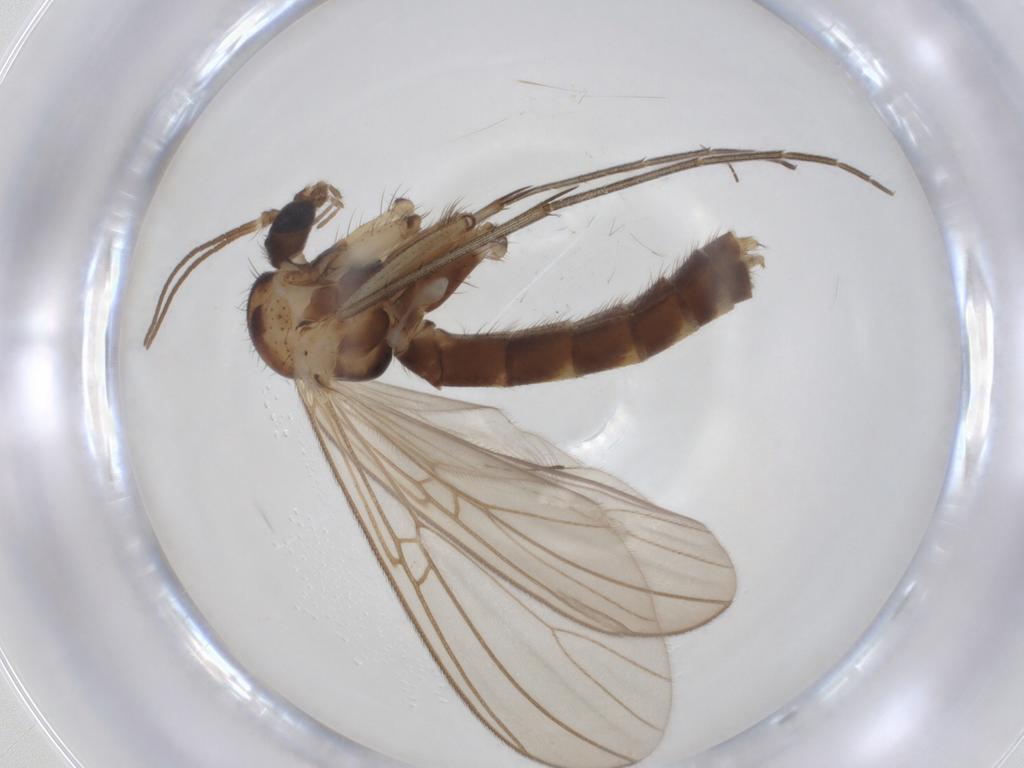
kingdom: Animalia
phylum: Arthropoda
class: Insecta
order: Diptera
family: Mycetophilidae
